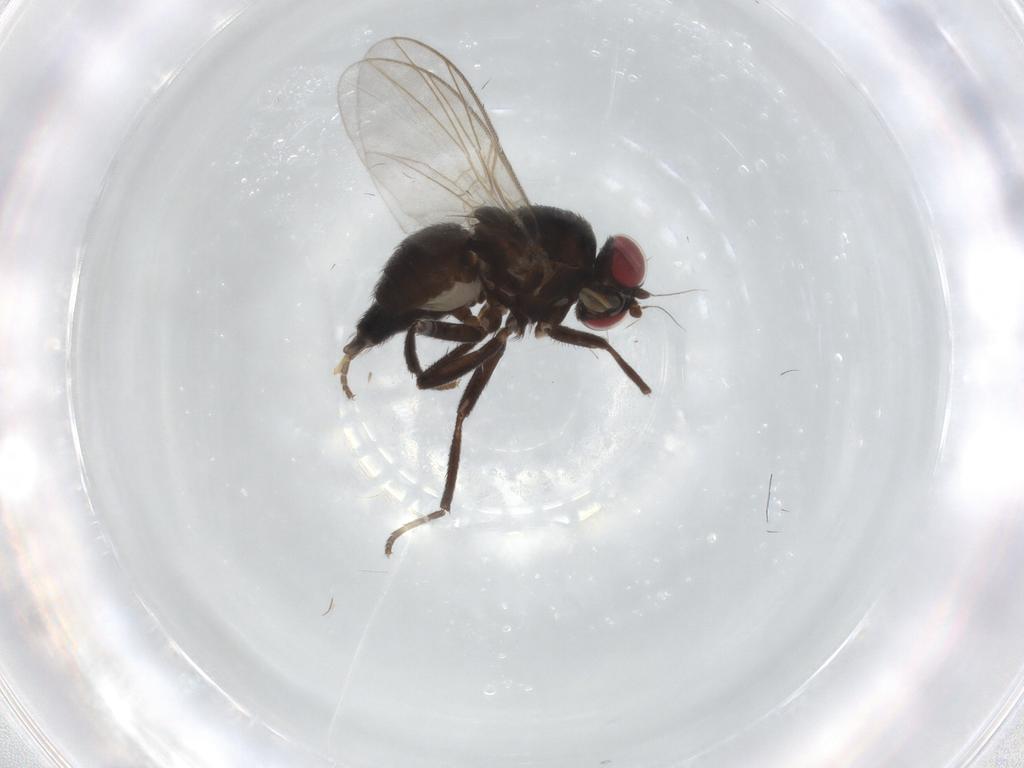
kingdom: Animalia
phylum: Arthropoda
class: Insecta
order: Diptera
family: Agromyzidae
